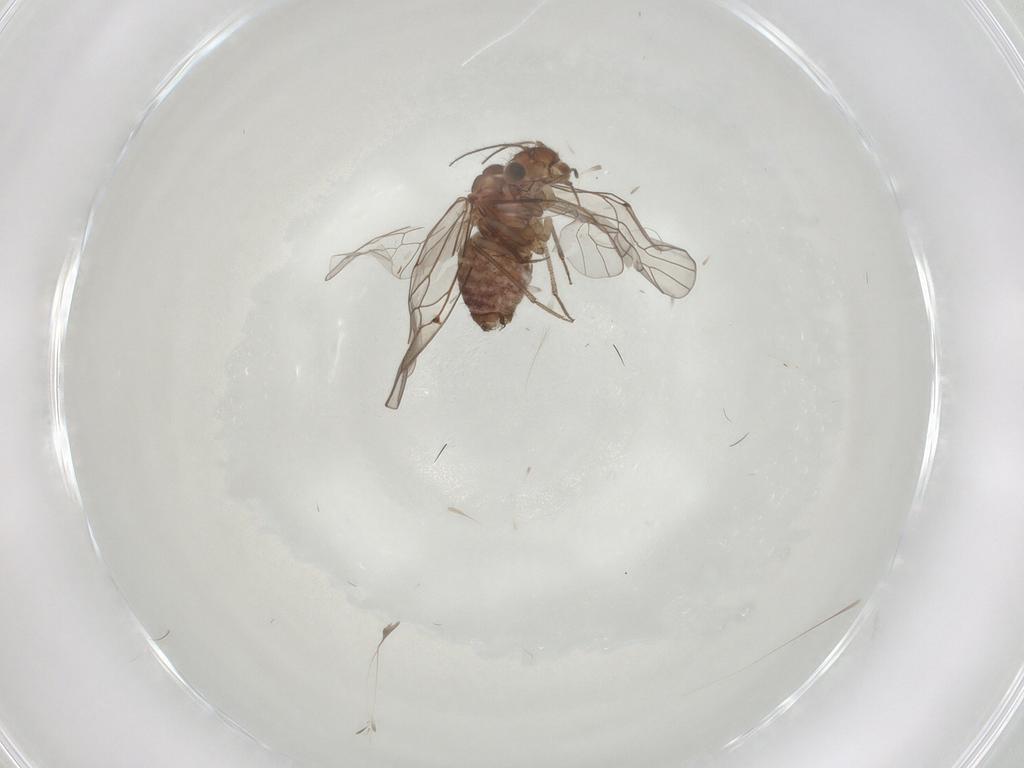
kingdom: Animalia
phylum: Arthropoda
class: Insecta
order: Psocodea
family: Lachesillidae
